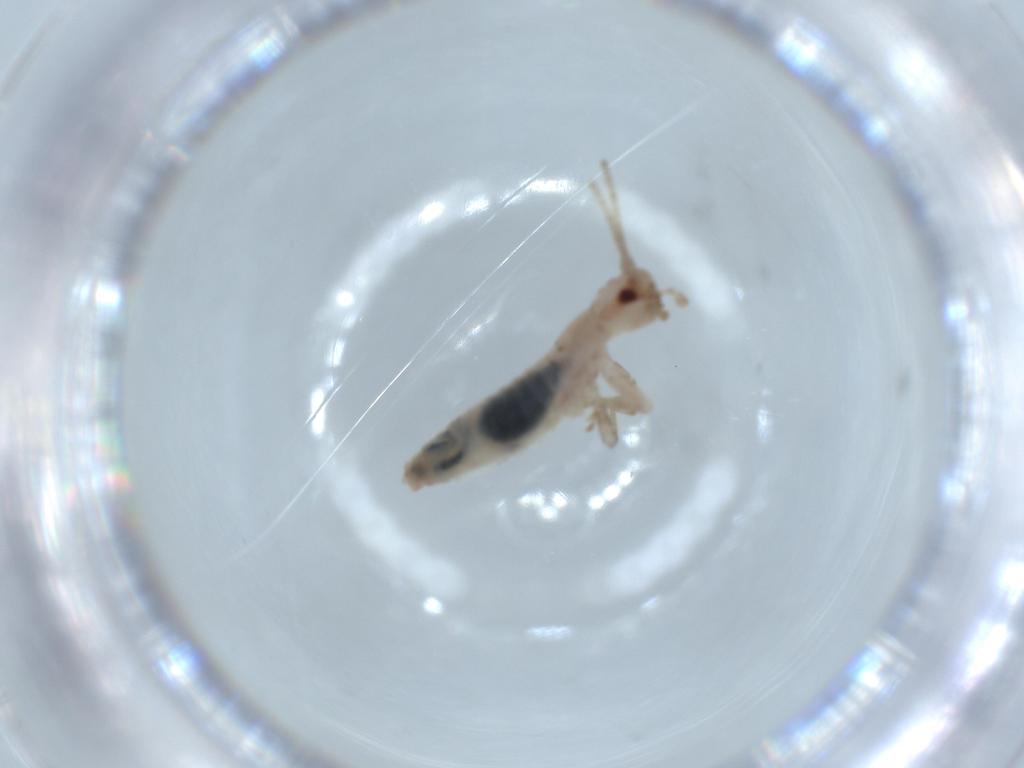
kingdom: Animalia
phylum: Arthropoda
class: Insecta
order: Orthoptera
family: Mogoplistidae
